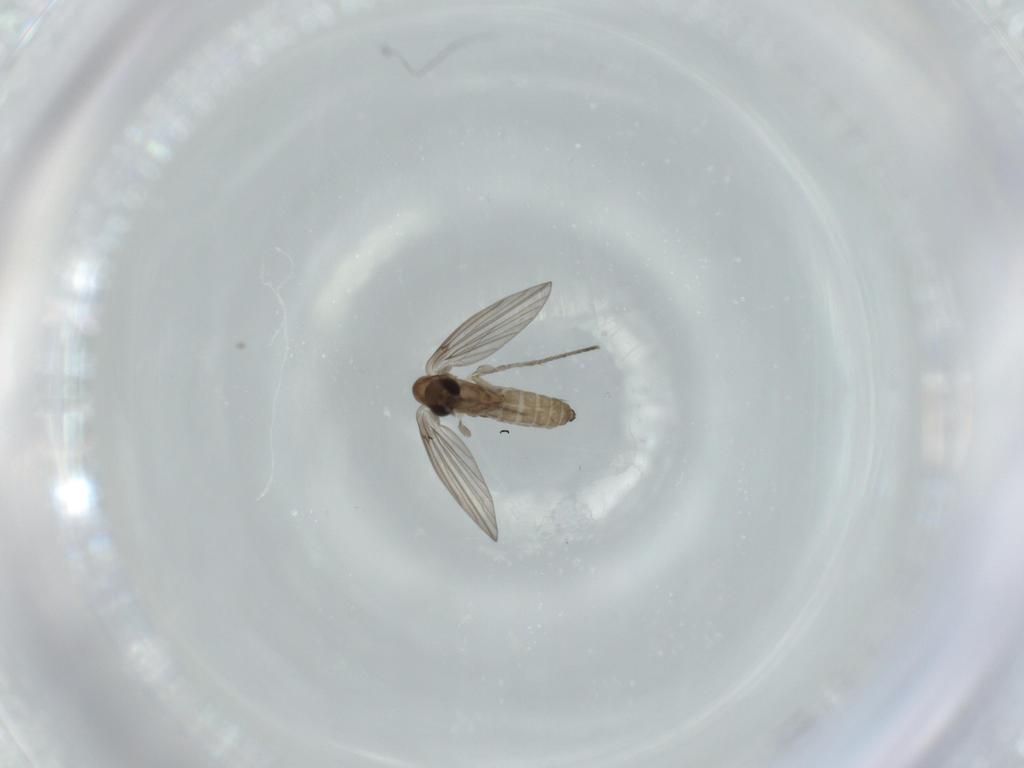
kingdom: Animalia
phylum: Arthropoda
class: Insecta
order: Diptera
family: Psychodidae
